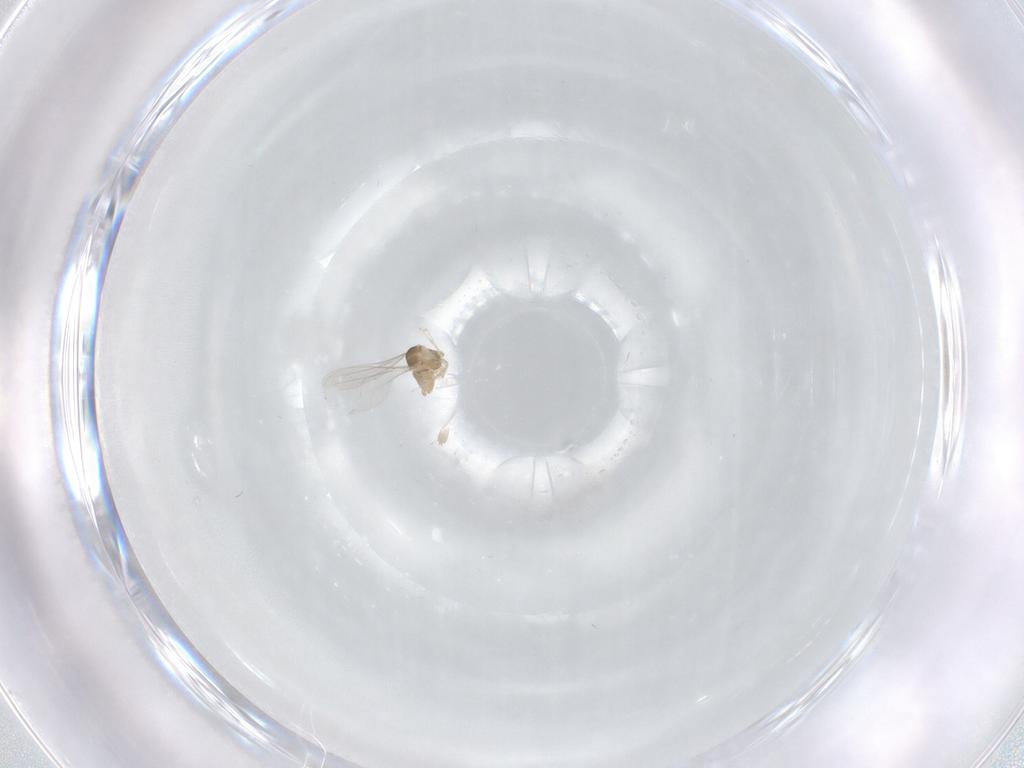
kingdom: Animalia
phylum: Arthropoda
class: Insecta
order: Diptera
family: Cecidomyiidae
